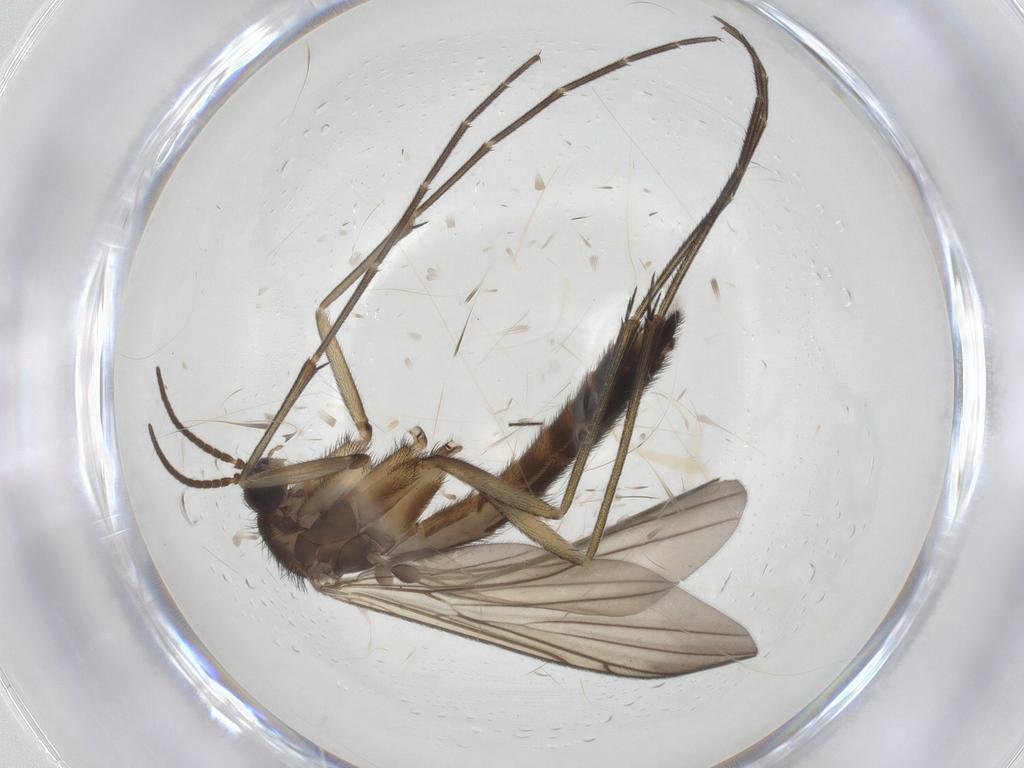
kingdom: Animalia
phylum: Arthropoda
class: Insecta
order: Diptera
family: Keroplatidae
